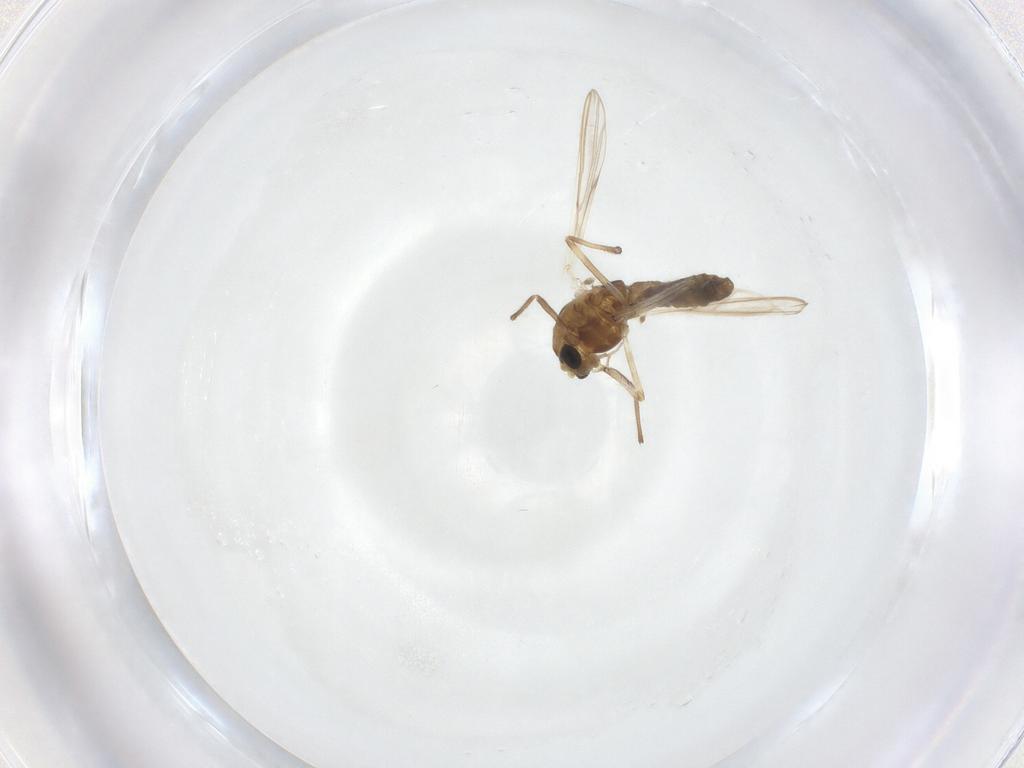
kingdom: Animalia
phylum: Arthropoda
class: Insecta
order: Diptera
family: Chironomidae
